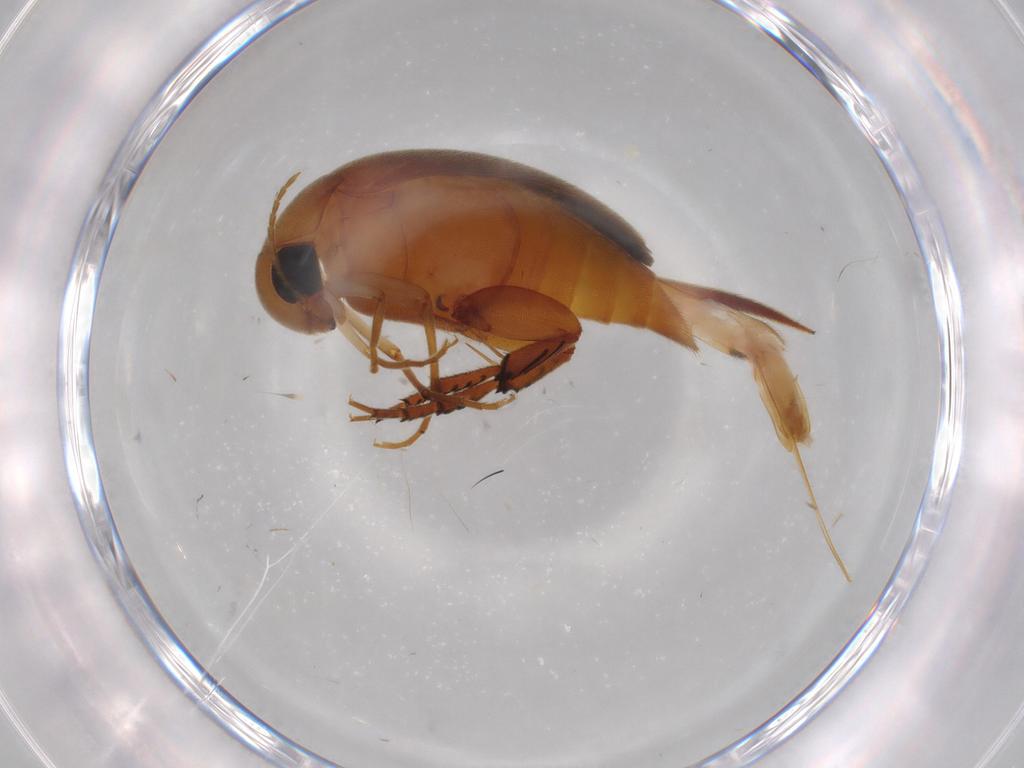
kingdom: Animalia
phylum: Arthropoda
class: Insecta
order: Coleoptera
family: Mordellidae
